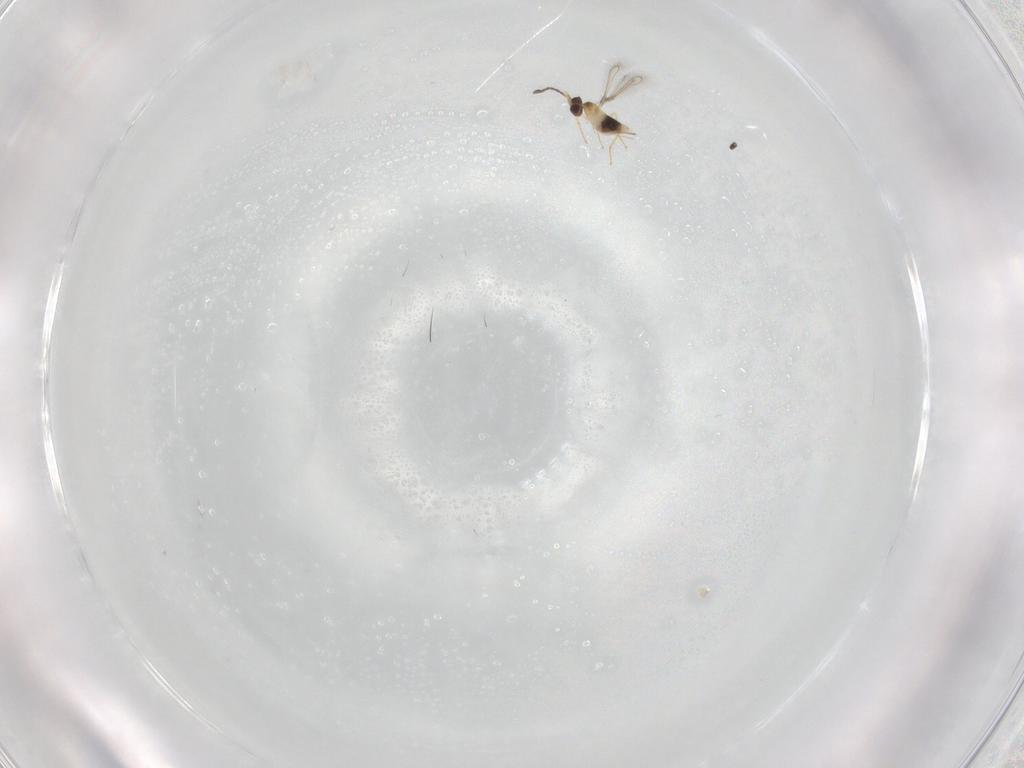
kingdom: Animalia
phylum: Arthropoda
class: Insecta
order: Hymenoptera
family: Mymaridae
